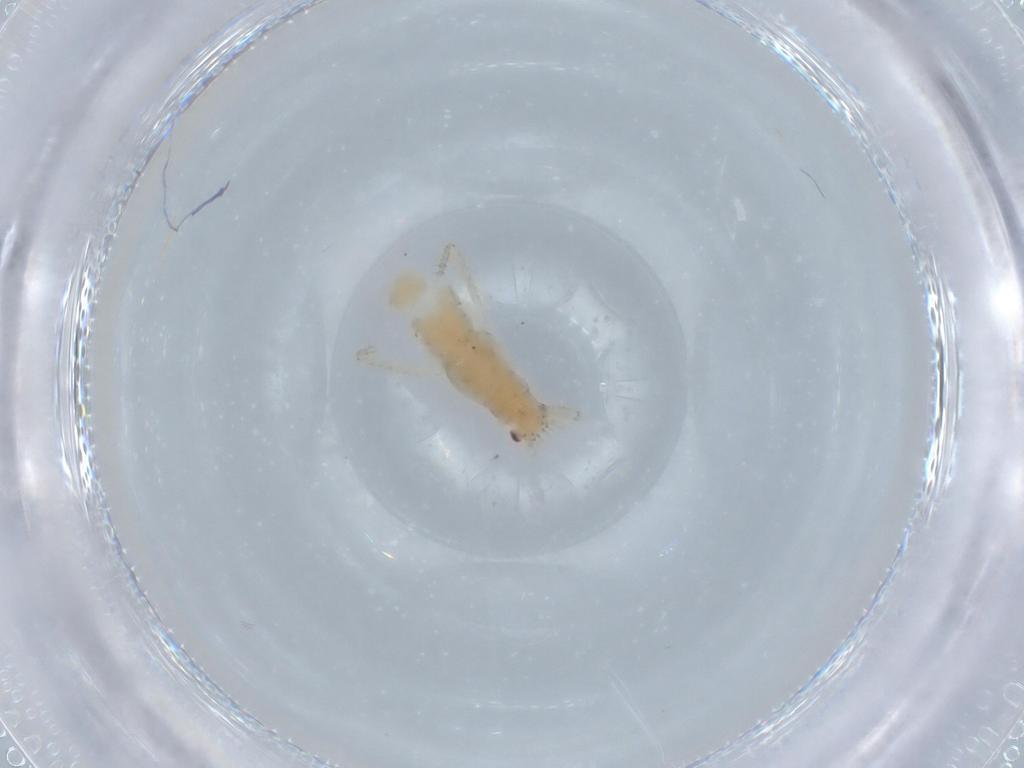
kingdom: Animalia
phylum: Arthropoda
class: Insecta
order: Hemiptera
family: Aphididae
